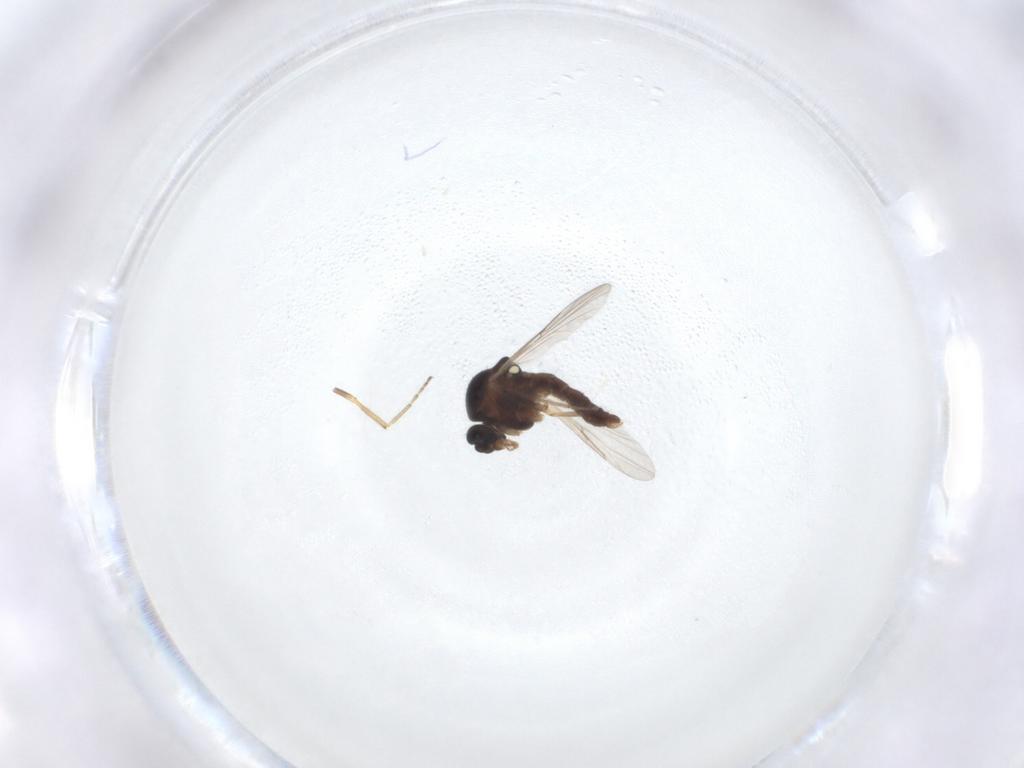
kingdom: Animalia
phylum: Arthropoda
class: Insecta
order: Diptera
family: Ceratopogonidae
